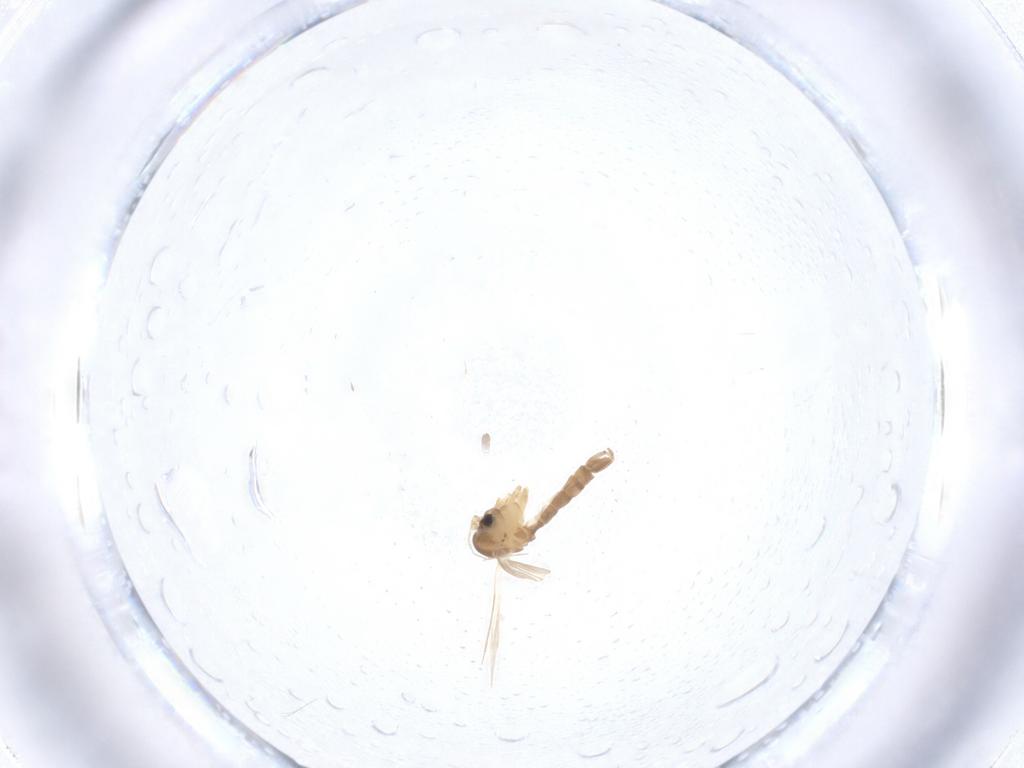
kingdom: Animalia
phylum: Arthropoda
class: Insecta
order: Diptera
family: Psychodidae
